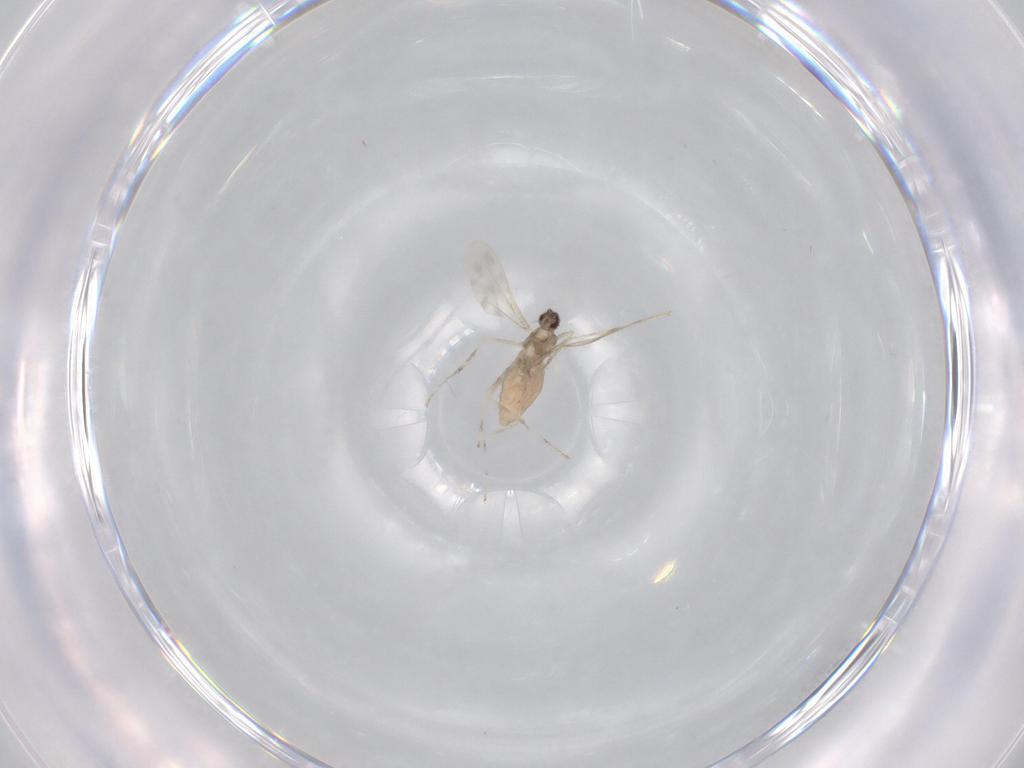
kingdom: Animalia
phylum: Arthropoda
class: Insecta
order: Diptera
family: Cecidomyiidae
